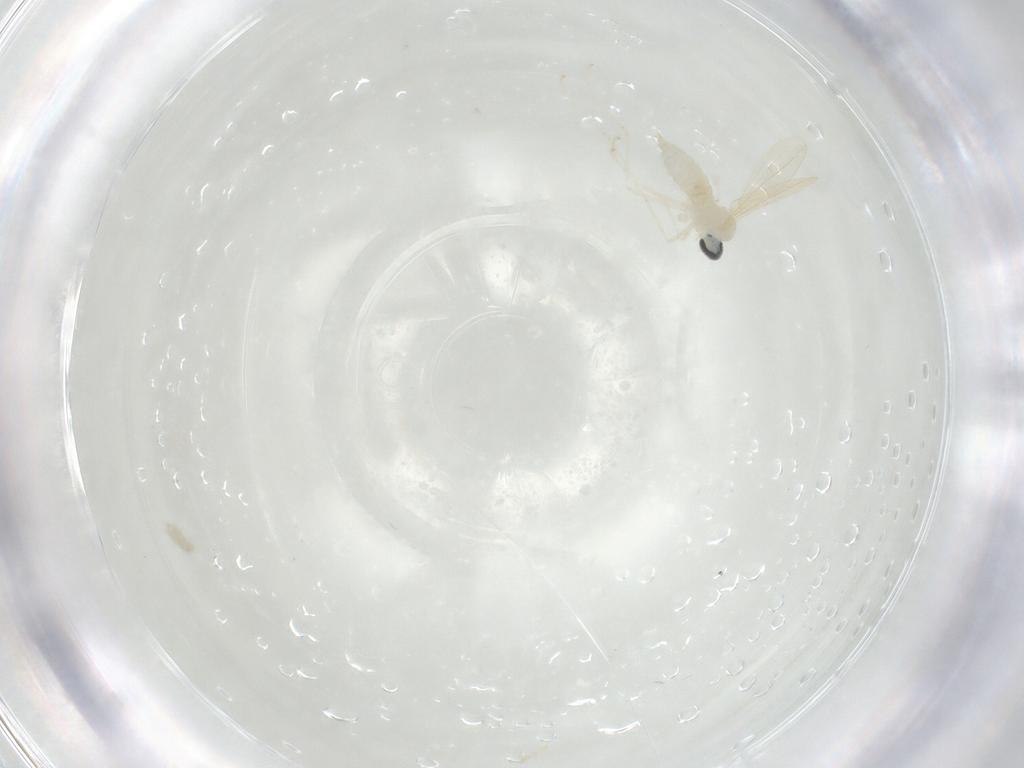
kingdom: Animalia
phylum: Arthropoda
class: Insecta
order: Diptera
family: Cecidomyiidae
